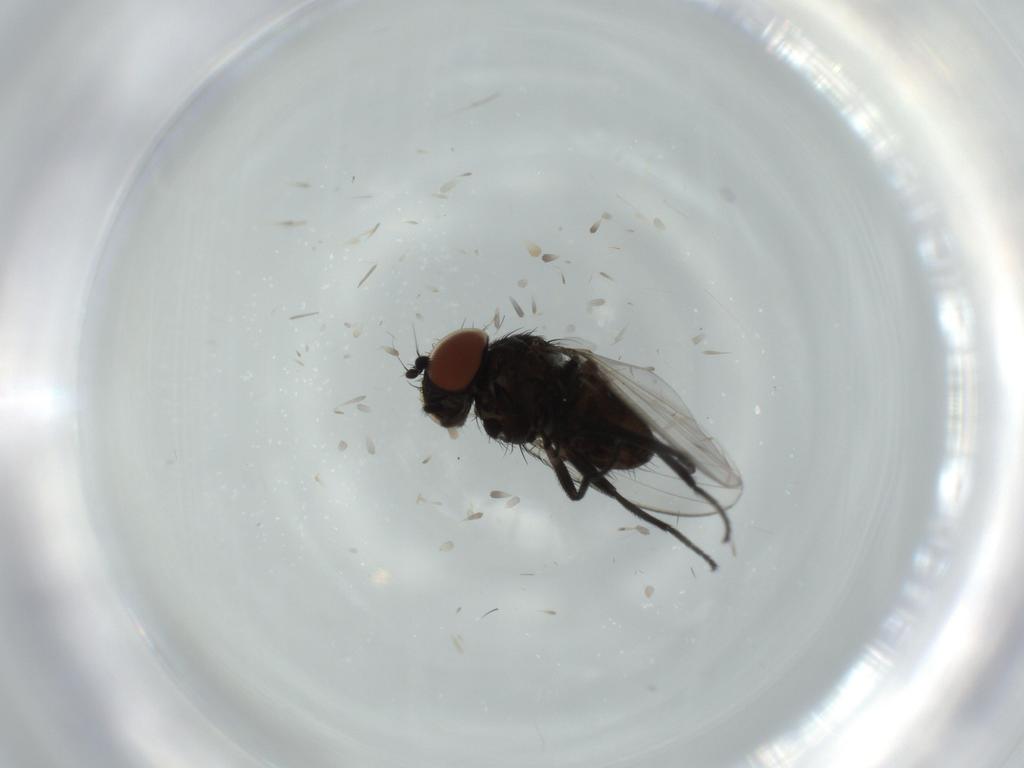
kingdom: Animalia
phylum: Arthropoda
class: Insecta
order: Diptera
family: Milichiidae
